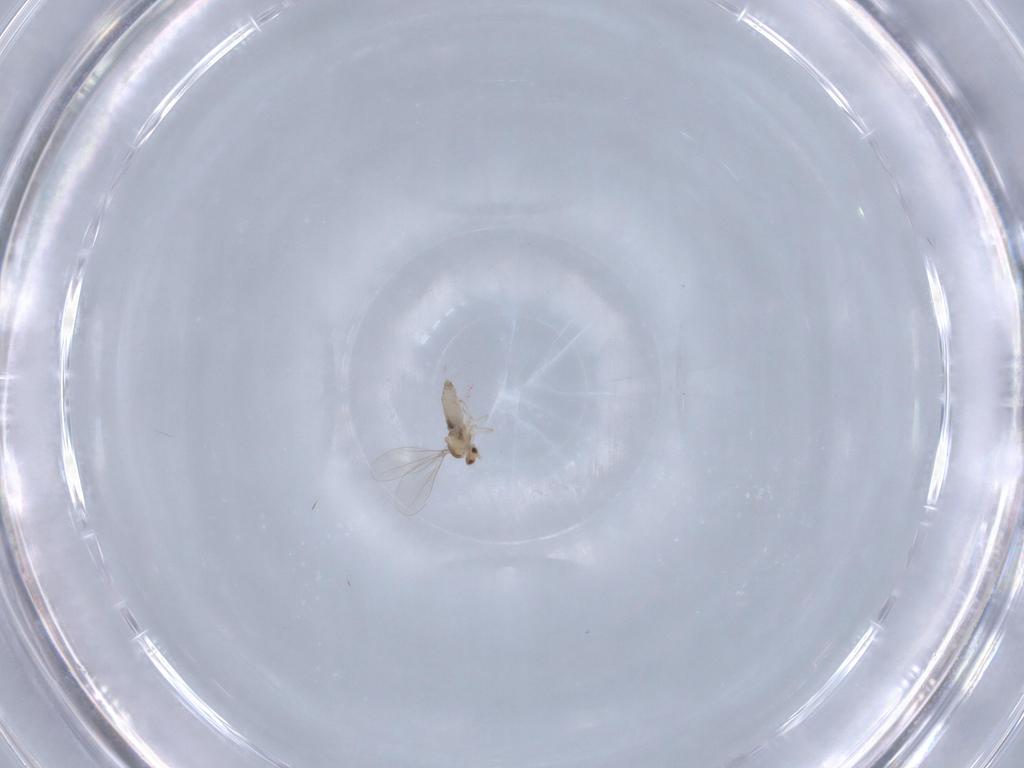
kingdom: Animalia
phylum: Arthropoda
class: Insecta
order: Diptera
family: Cecidomyiidae
